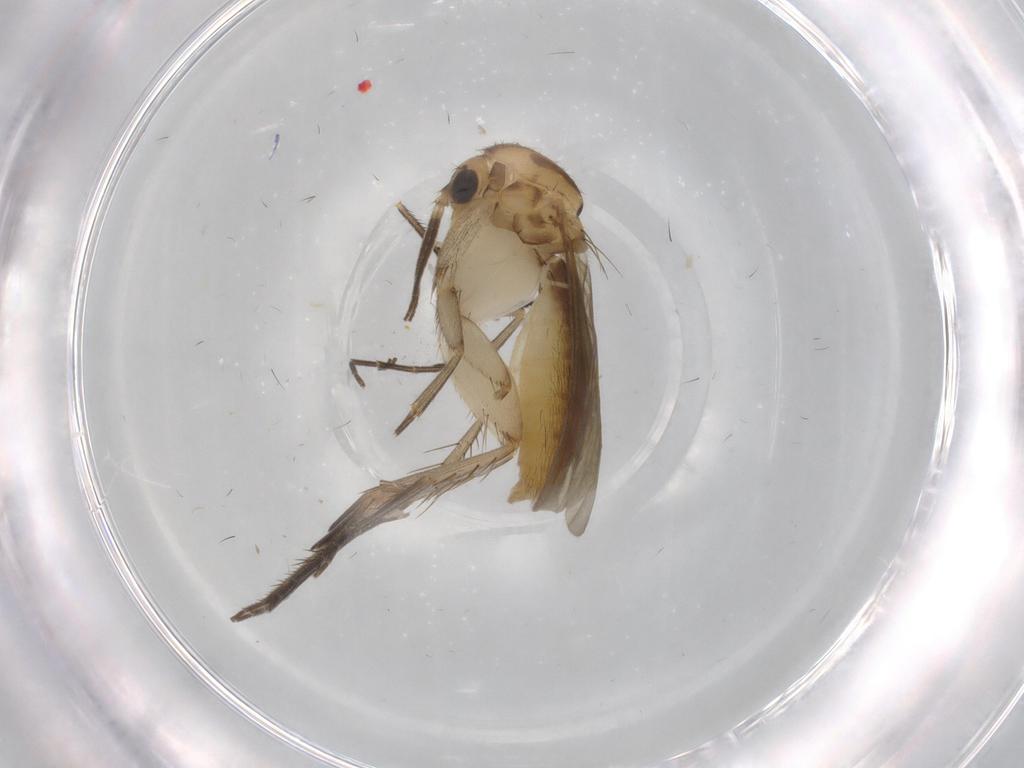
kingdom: Animalia
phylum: Arthropoda
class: Insecta
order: Diptera
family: Mycetophilidae
